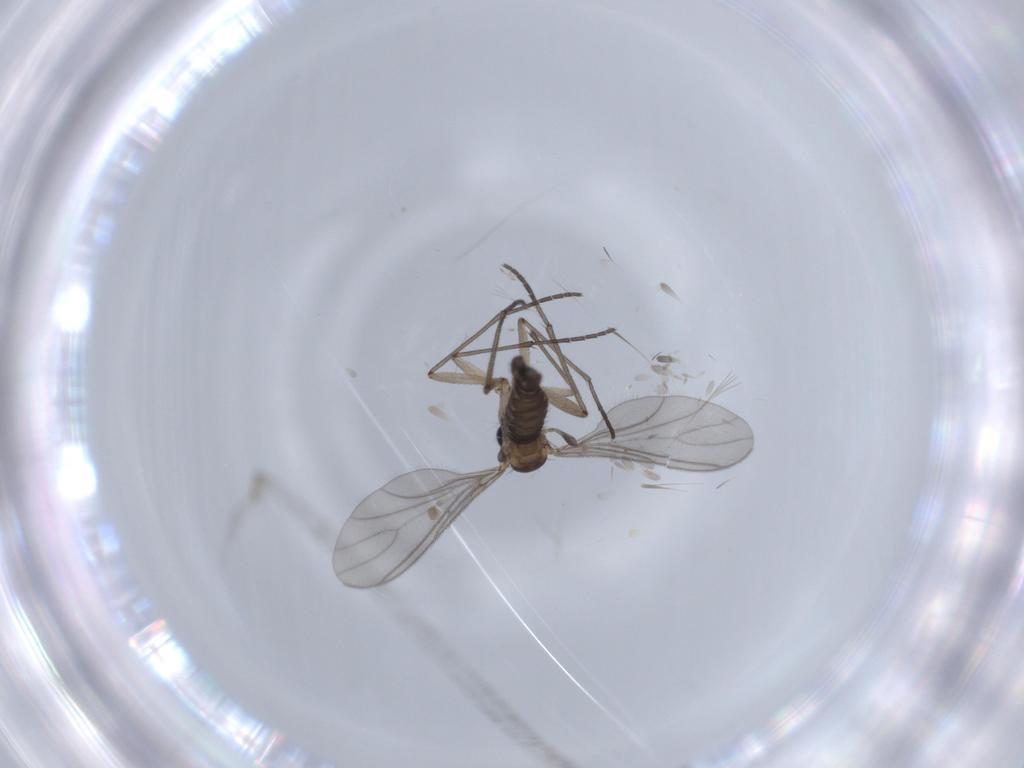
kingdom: Animalia
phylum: Arthropoda
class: Insecta
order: Diptera
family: Sciaridae
